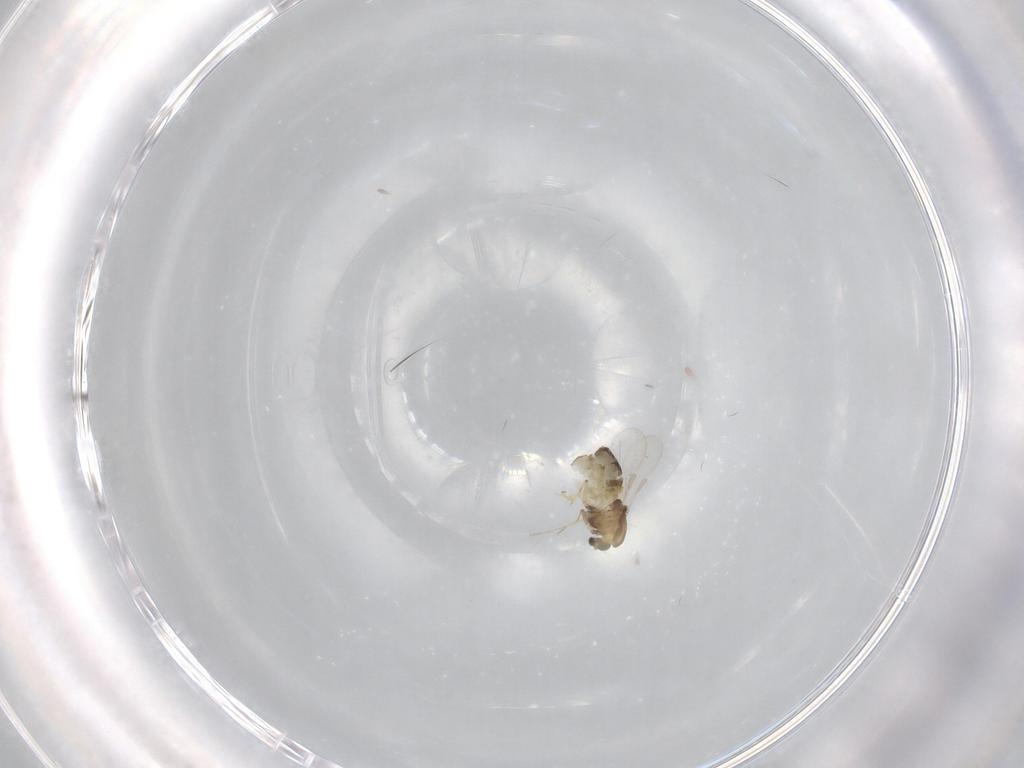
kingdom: Animalia
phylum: Arthropoda
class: Insecta
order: Diptera
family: Chironomidae
